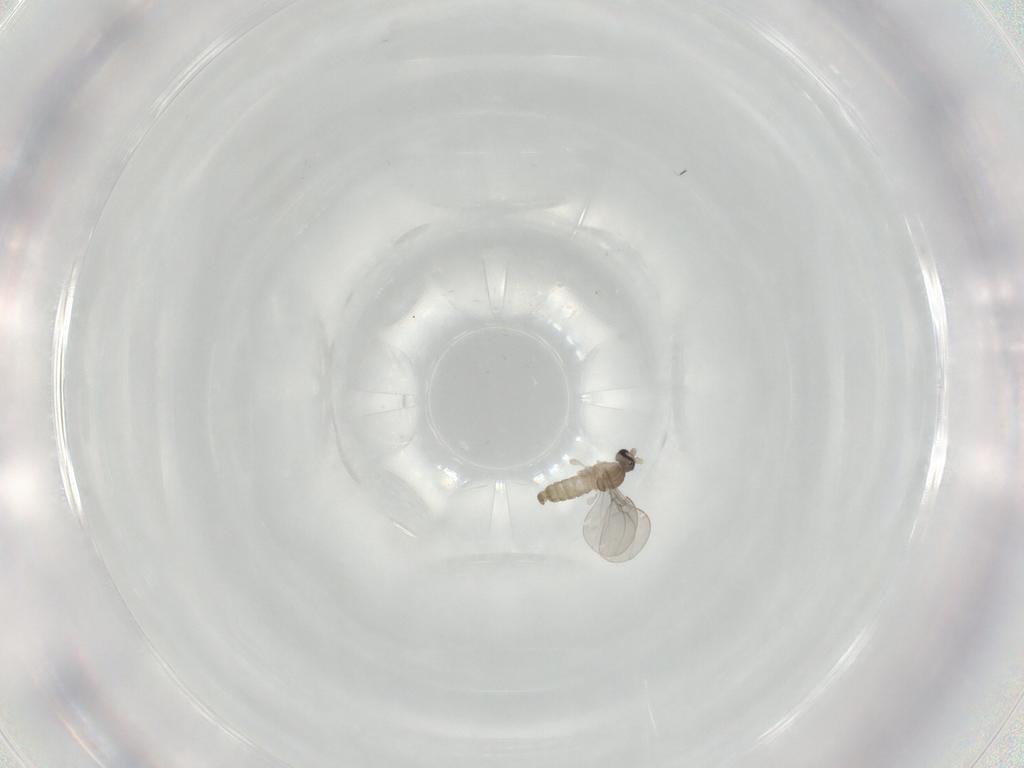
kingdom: Animalia
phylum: Arthropoda
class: Insecta
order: Diptera
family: Cecidomyiidae
